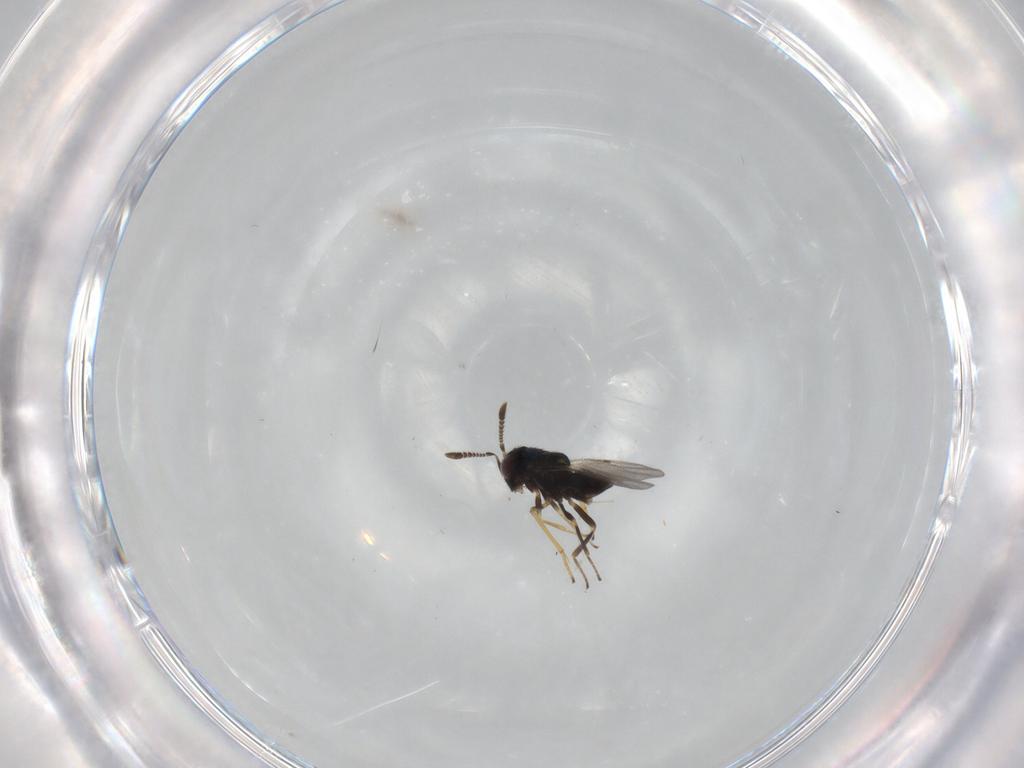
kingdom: Animalia
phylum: Arthropoda
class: Insecta
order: Hymenoptera
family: Encyrtidae
